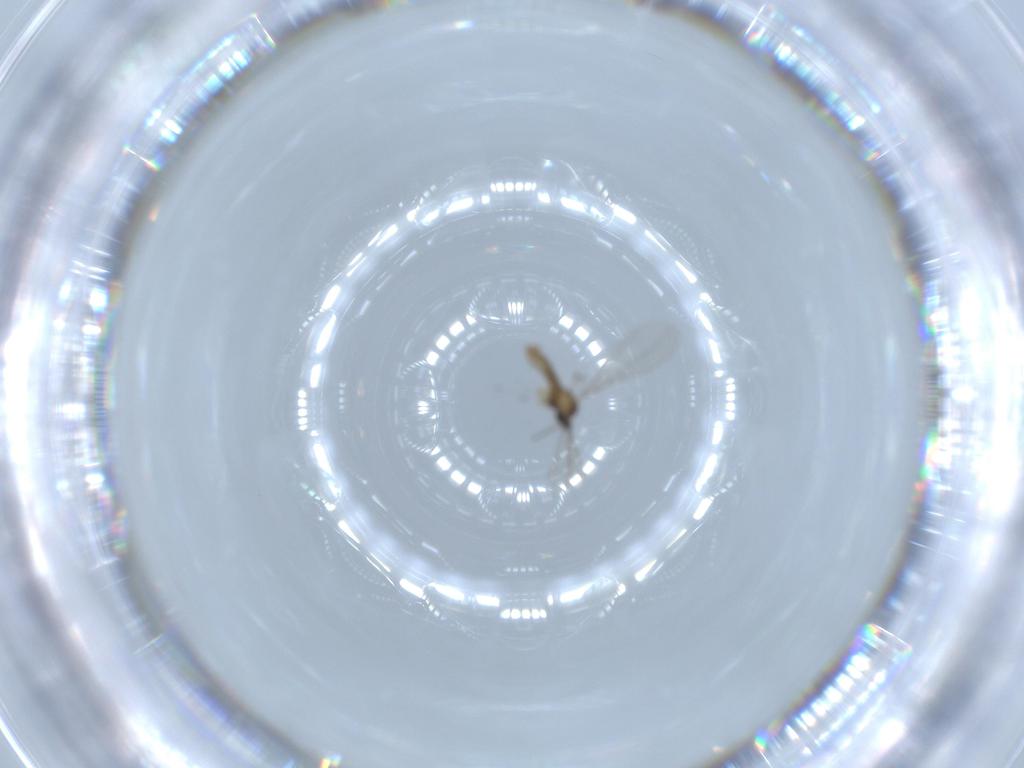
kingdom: Animalia
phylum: Arthropoda
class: Insecta
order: Diptera
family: Cecidomyiidae
